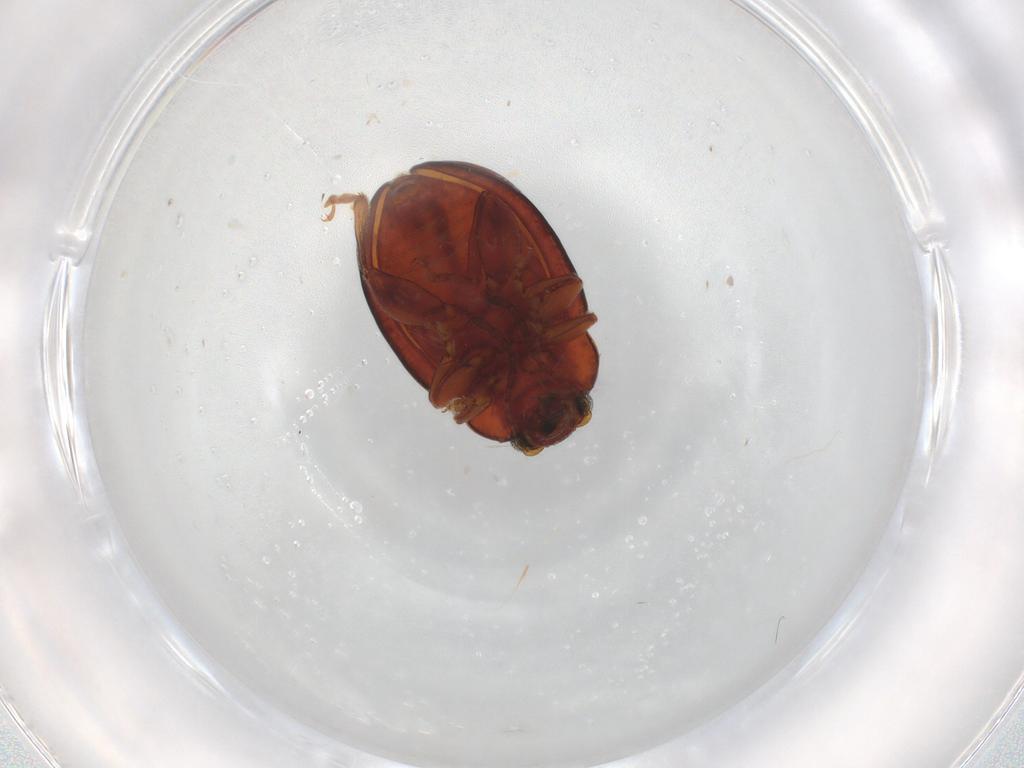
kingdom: Animalia
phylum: Arthropoda
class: Insecta
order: Coleoptera
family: Chrysomelidae
